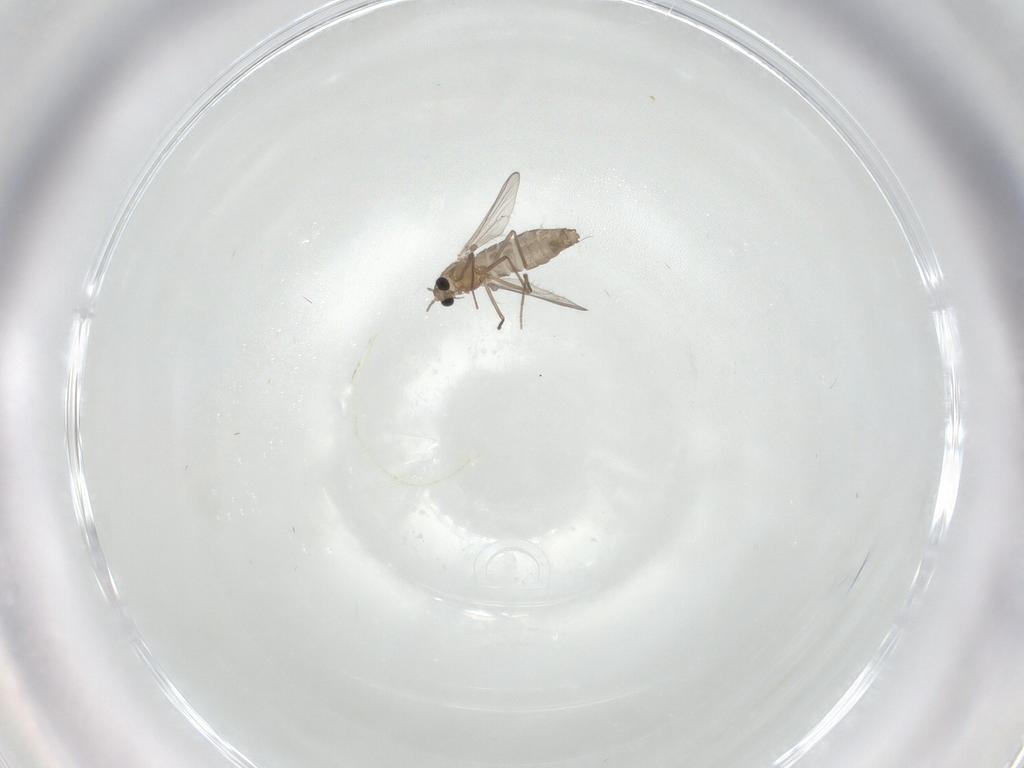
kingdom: Animalia
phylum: Arthropoda
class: Insecta
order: Diptera
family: Chironomidae
